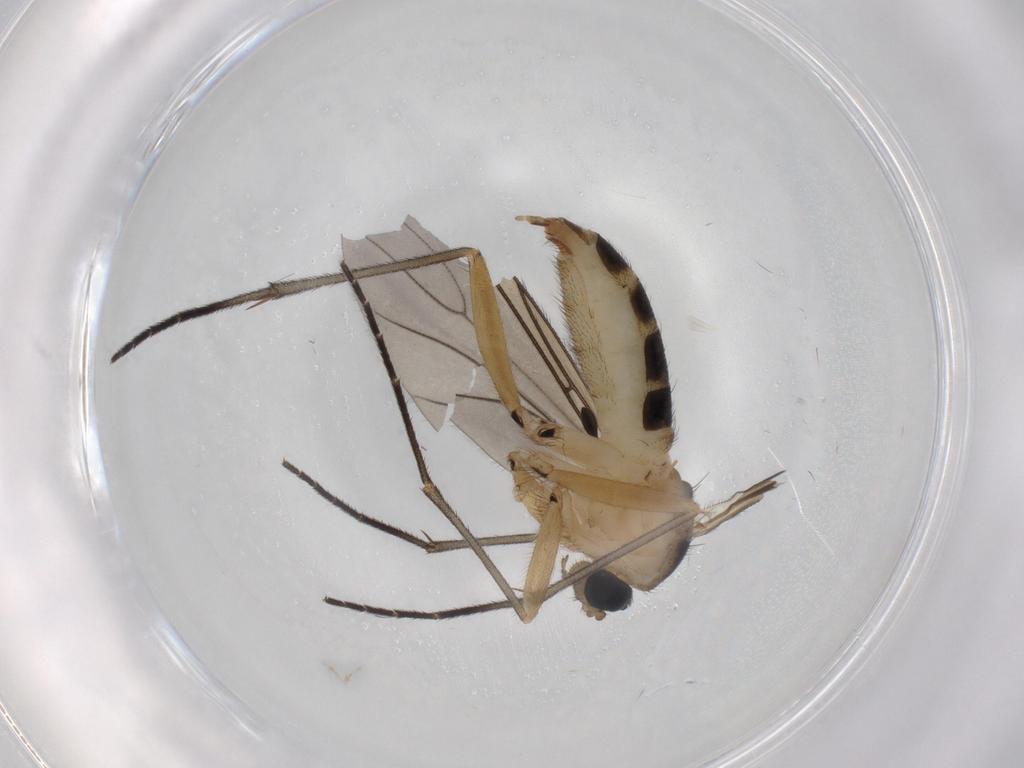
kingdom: Animalia
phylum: Arthropoda
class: Insecta
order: Diptera
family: Sciaridae
